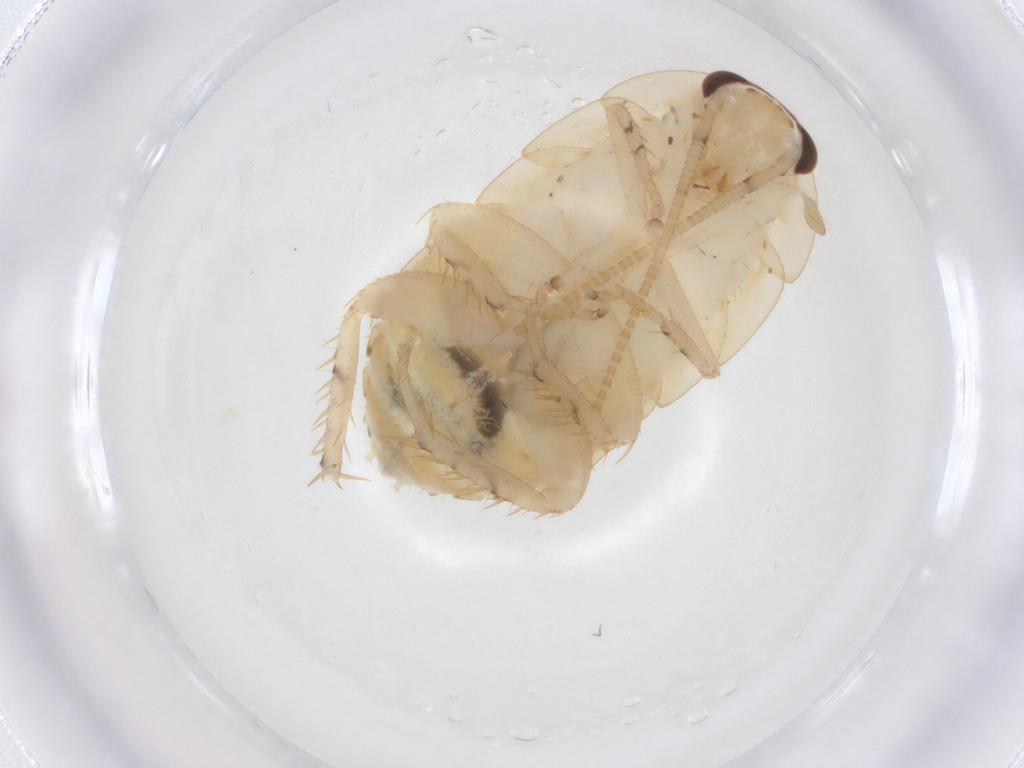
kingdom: Animalia
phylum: Arthropoda
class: Insecta
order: Blattodea
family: Ectobiidae
